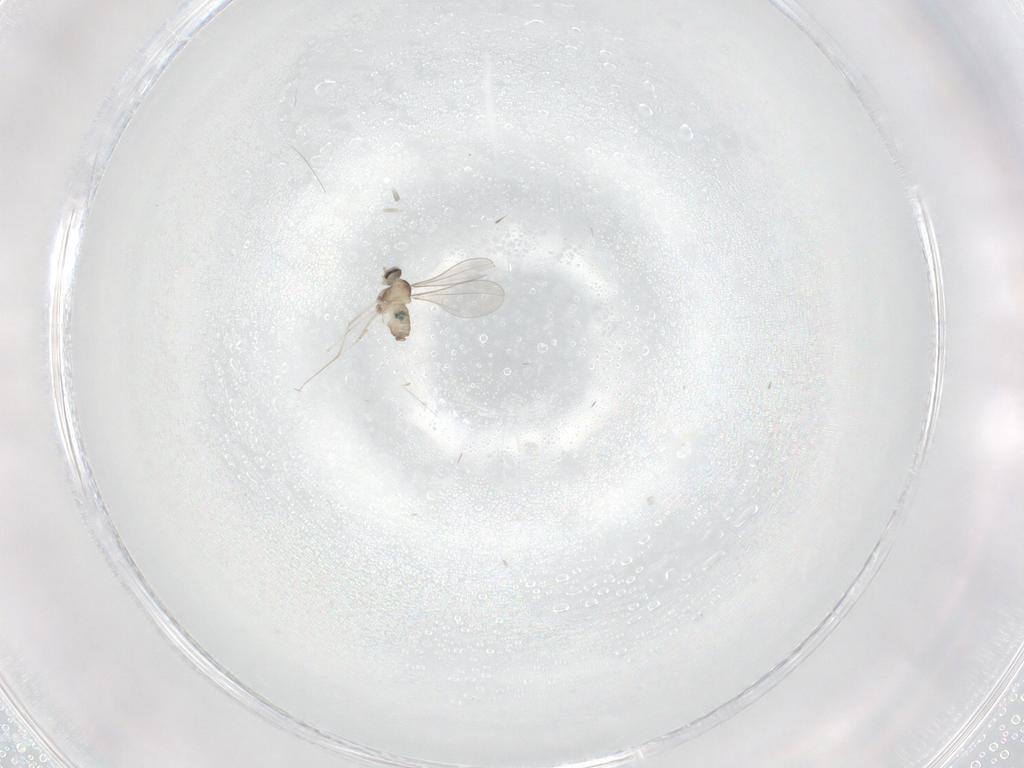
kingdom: Animalia
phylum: Arthropoda
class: Insecta
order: Diptera
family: Cecidomyiidae
